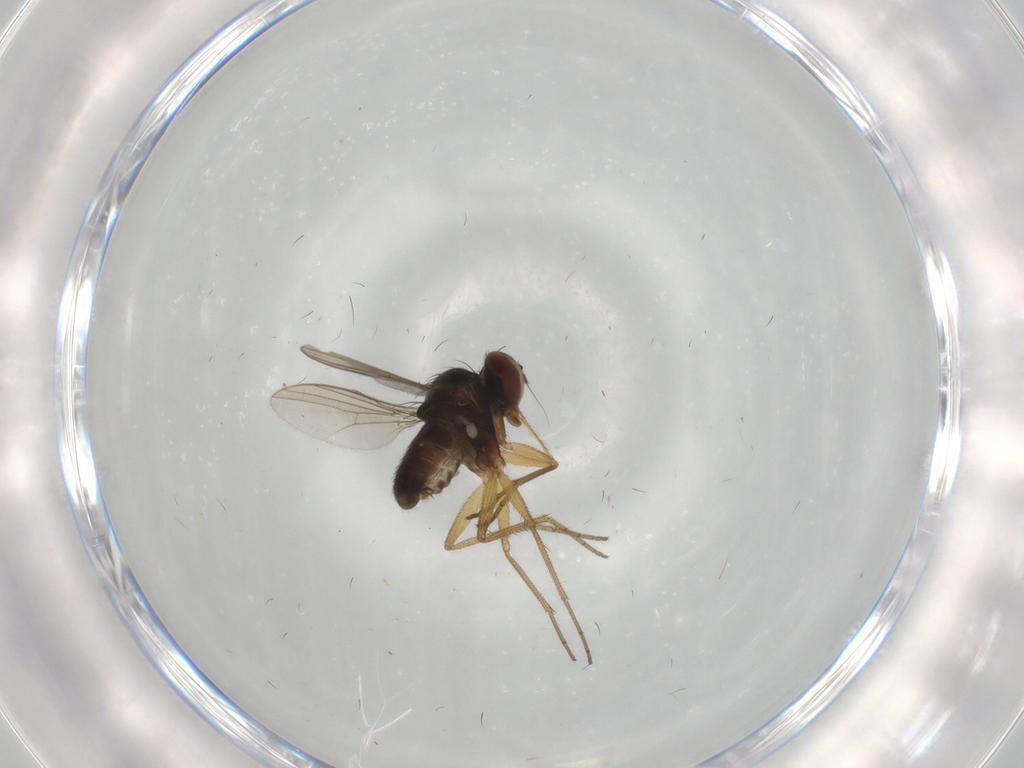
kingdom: Animalia
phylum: Arthropoda
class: Insecta
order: Diptera
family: Dolichopodidae
